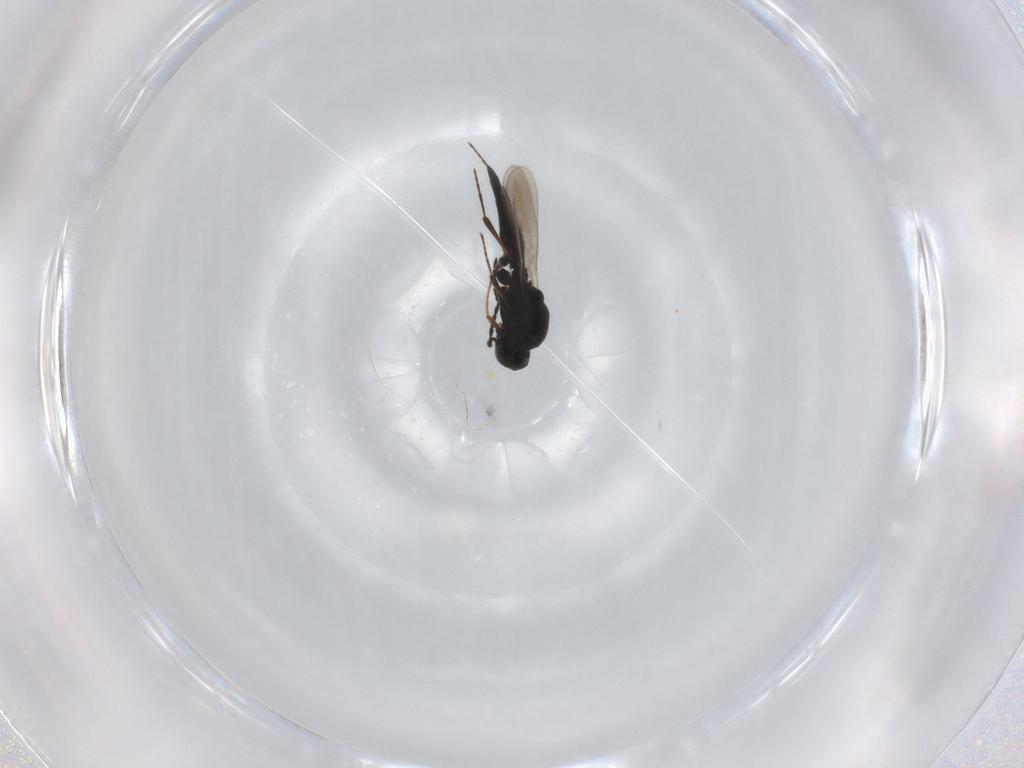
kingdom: Animalia
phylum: Arthropoda
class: Insecta
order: Hymenoptera
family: Platygastridae
